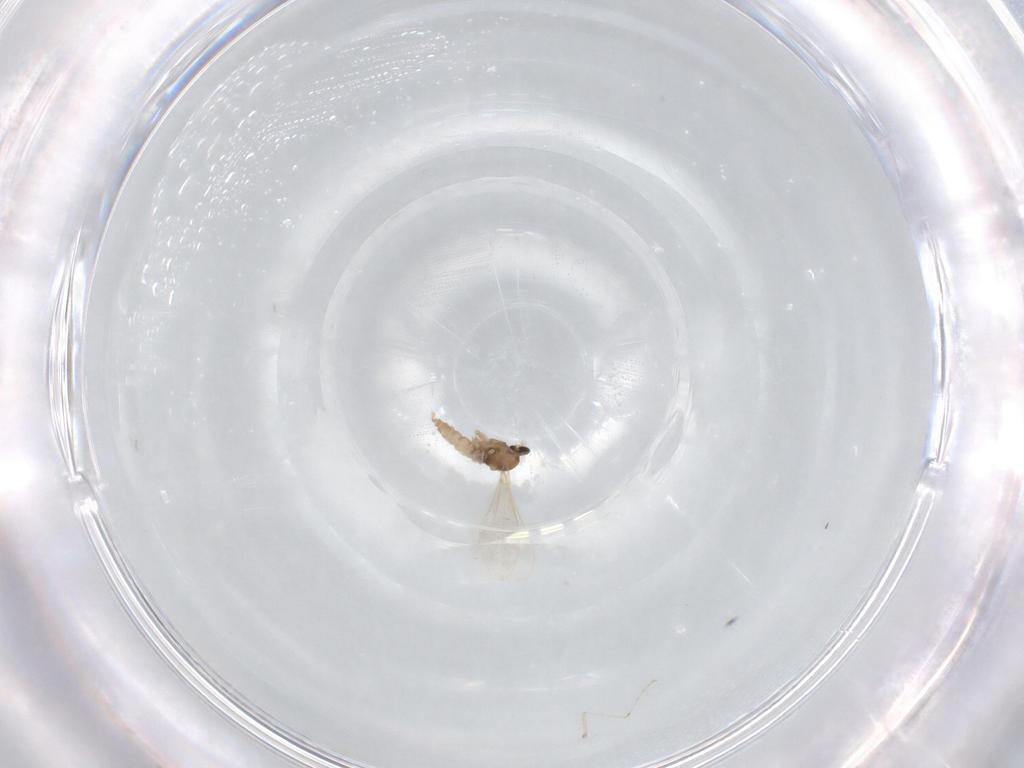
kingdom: Animalia
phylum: Arthropoda
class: Insecta
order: Diptera
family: Cecidomyiidae
